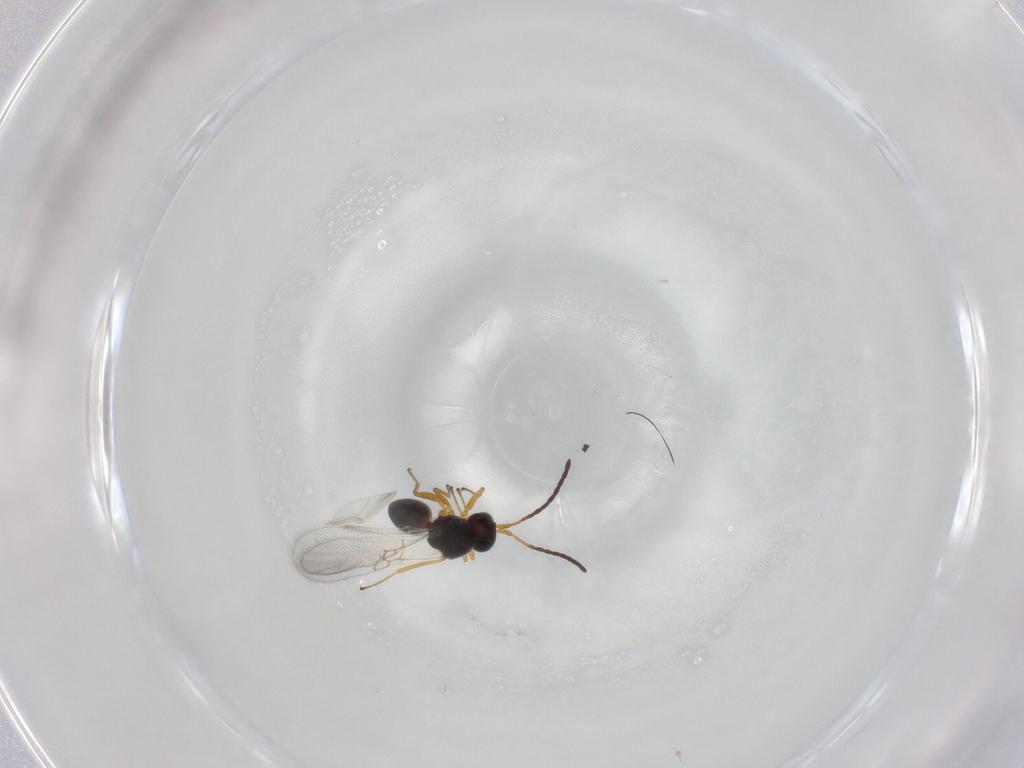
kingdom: Animalia
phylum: Arthropoda
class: Insecta
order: Hymenoptera
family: Figitidae
